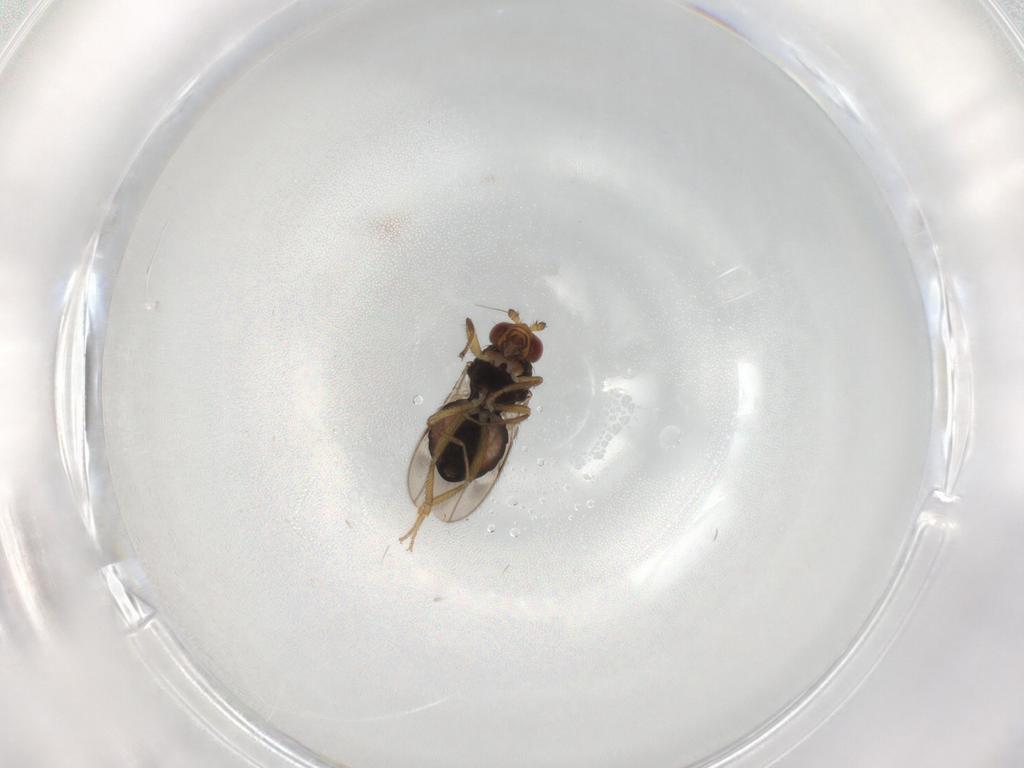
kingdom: Animalia
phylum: Arthropoda
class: Insecta
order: Diptera
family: Sphaeroceridae
